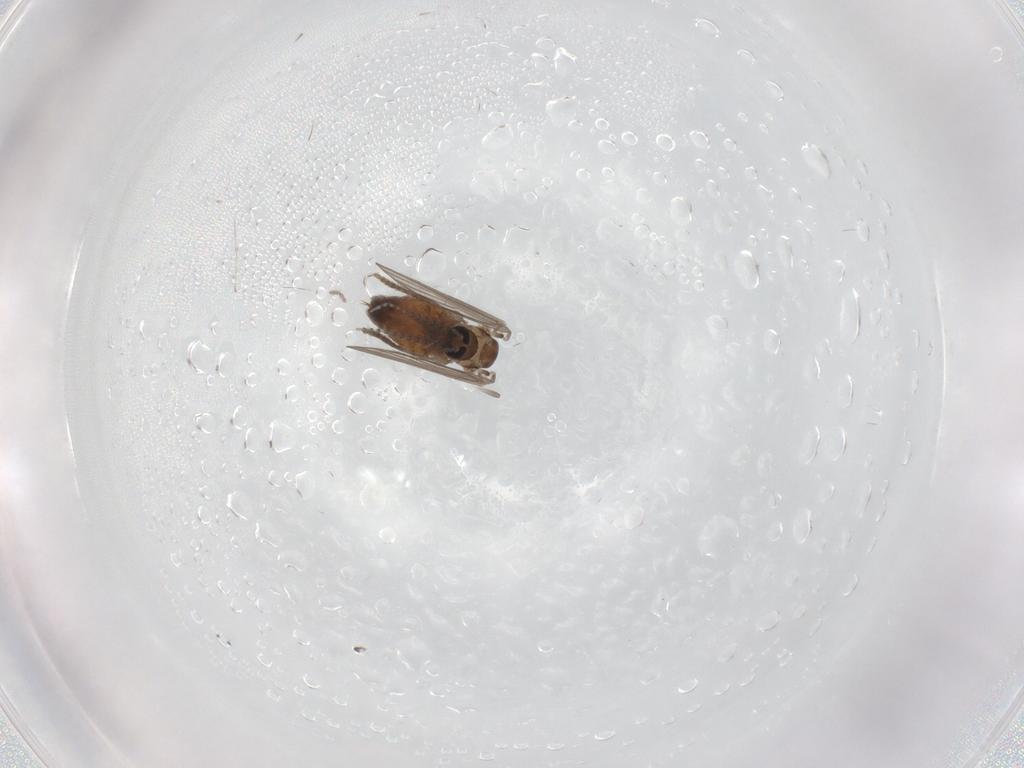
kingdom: Animalia
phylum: Arthropoda
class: Insecta
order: Diptera
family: Psychodidae
